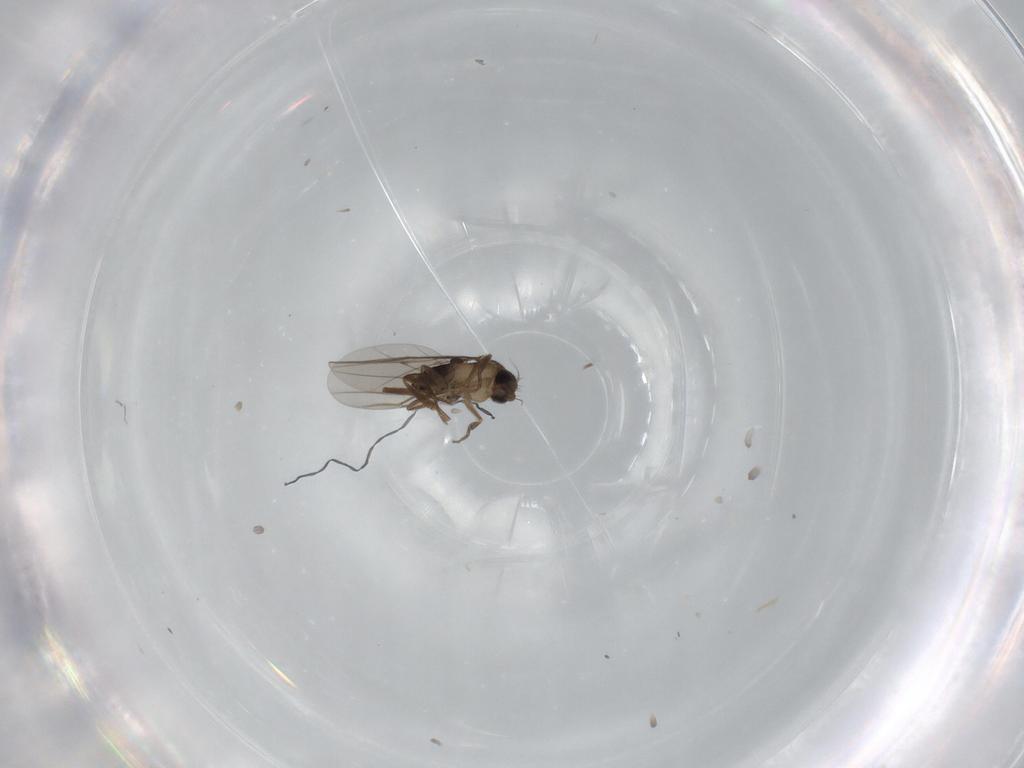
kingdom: Animalia
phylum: Arthropoda
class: Insecta
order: Diptera
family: Phoridae
